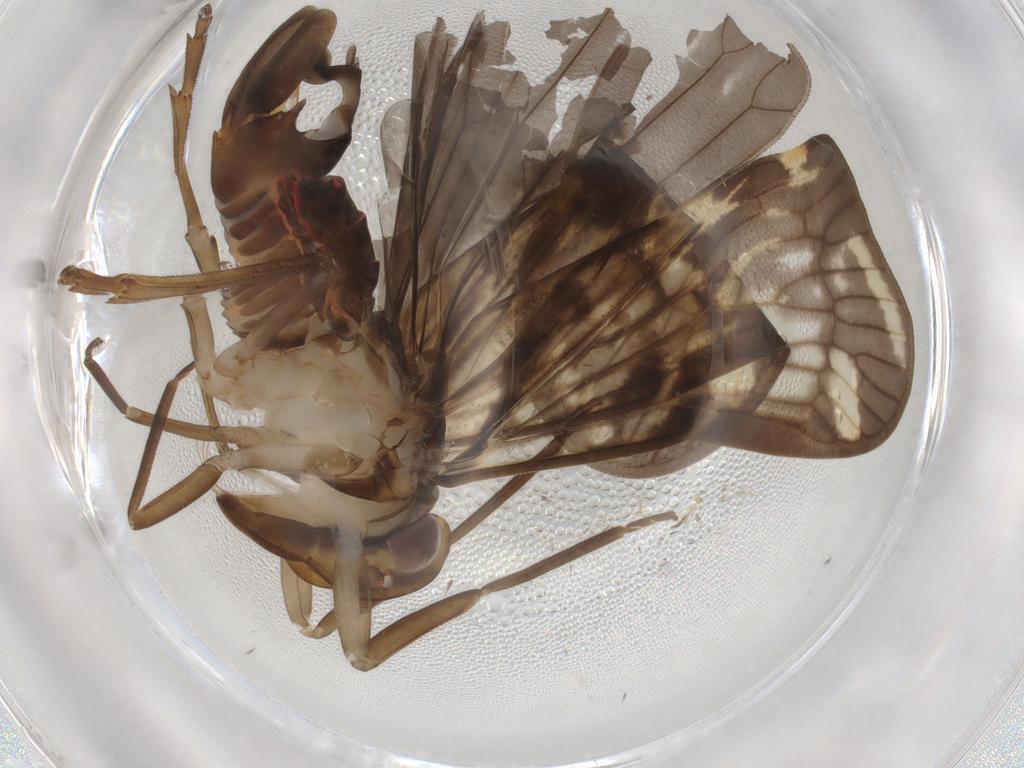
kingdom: Animalia
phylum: Arthropoda
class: Insecta
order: Hemiptera
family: Cixiidae
